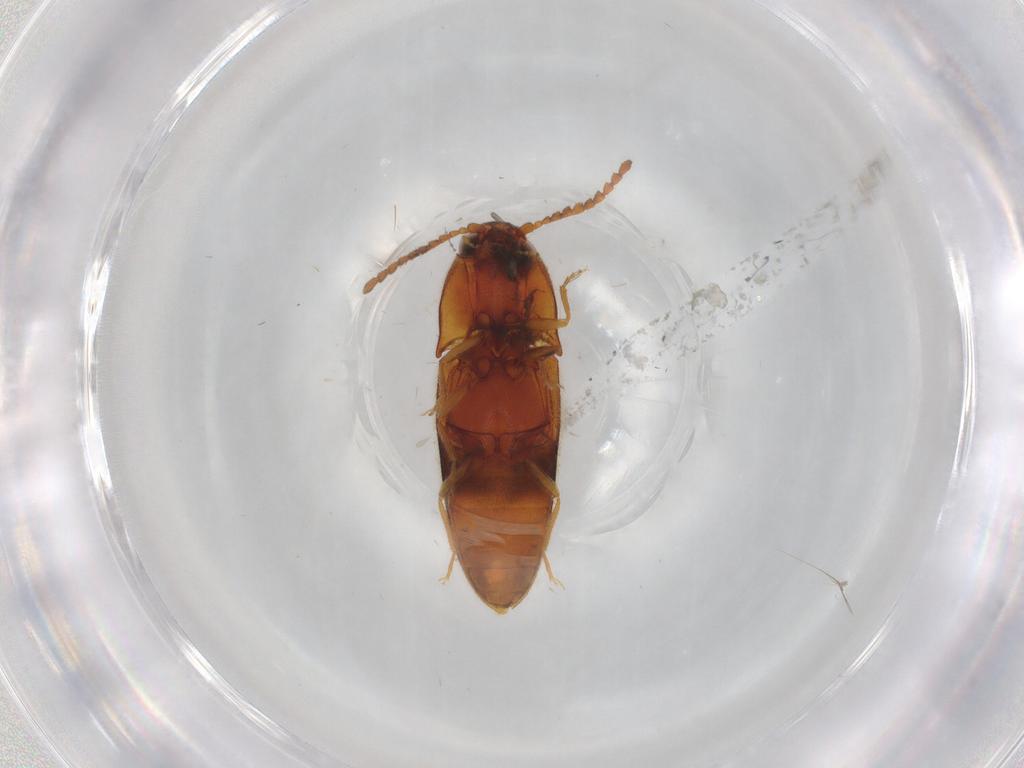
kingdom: Animalia
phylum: Arthropoda
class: Insecta
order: Coleoptera
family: Elateridae
